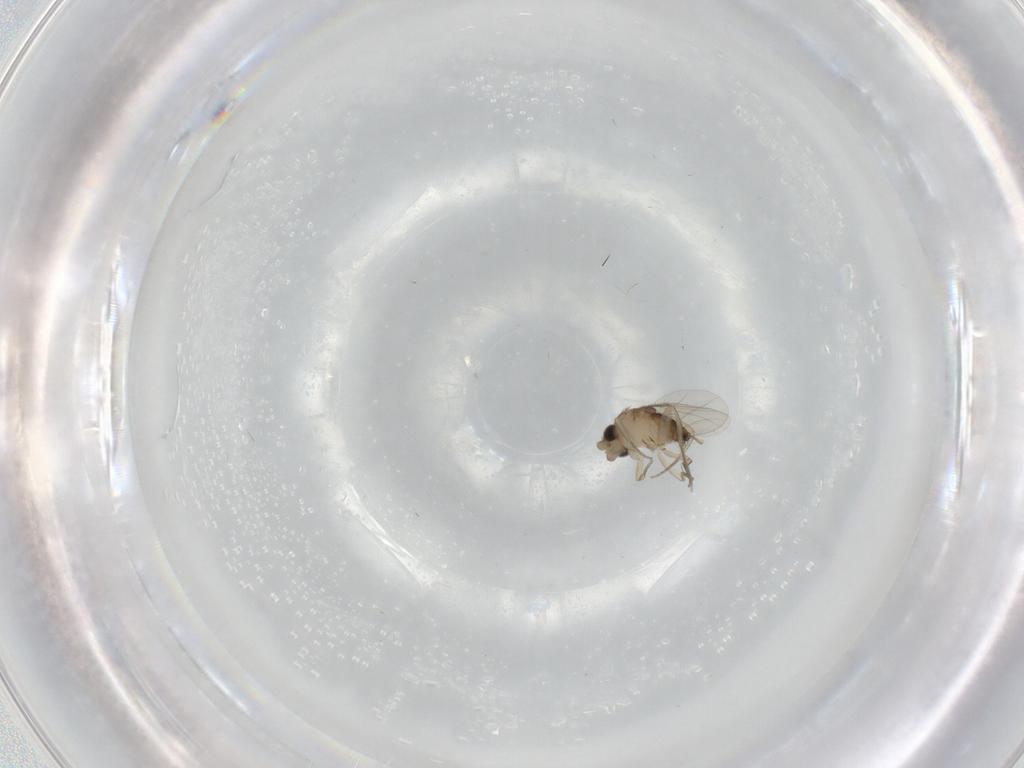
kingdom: Animalia
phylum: Arthropoda
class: Insecta
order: Diptera
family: Phoridae
